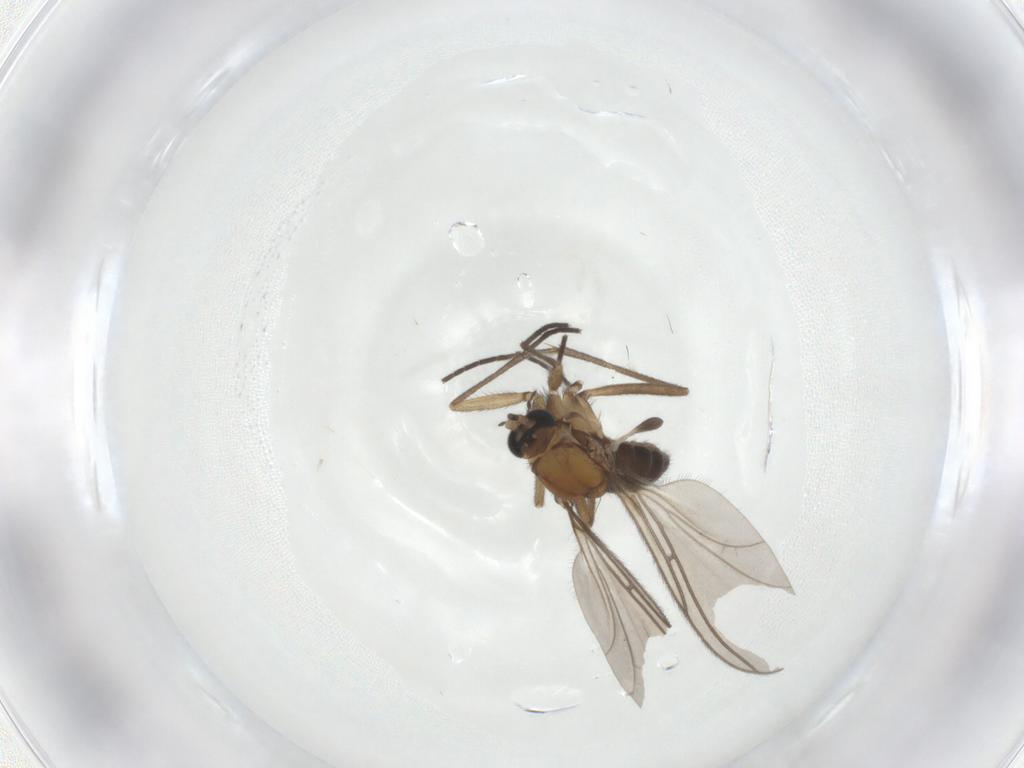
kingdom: Animalia
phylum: Arthropoda
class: Insecta
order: Diptera
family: Cecidomyiidae
